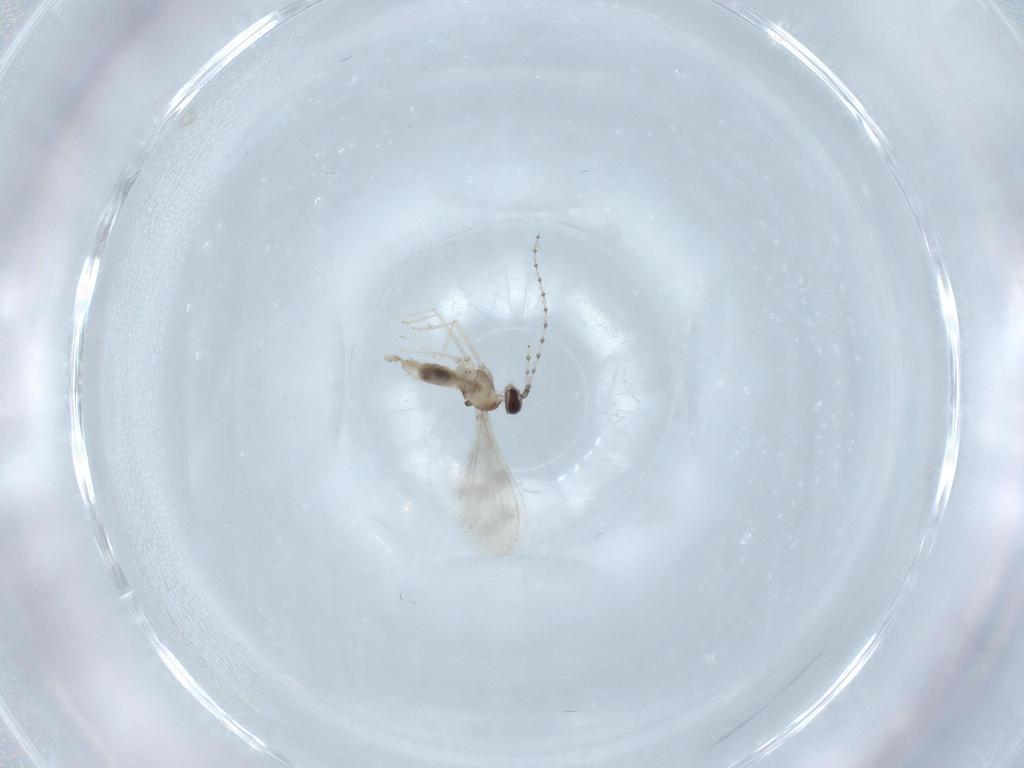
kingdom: Animalia
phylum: Arthropoda
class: Insecta
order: Diptera
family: Cecidomyiidae
